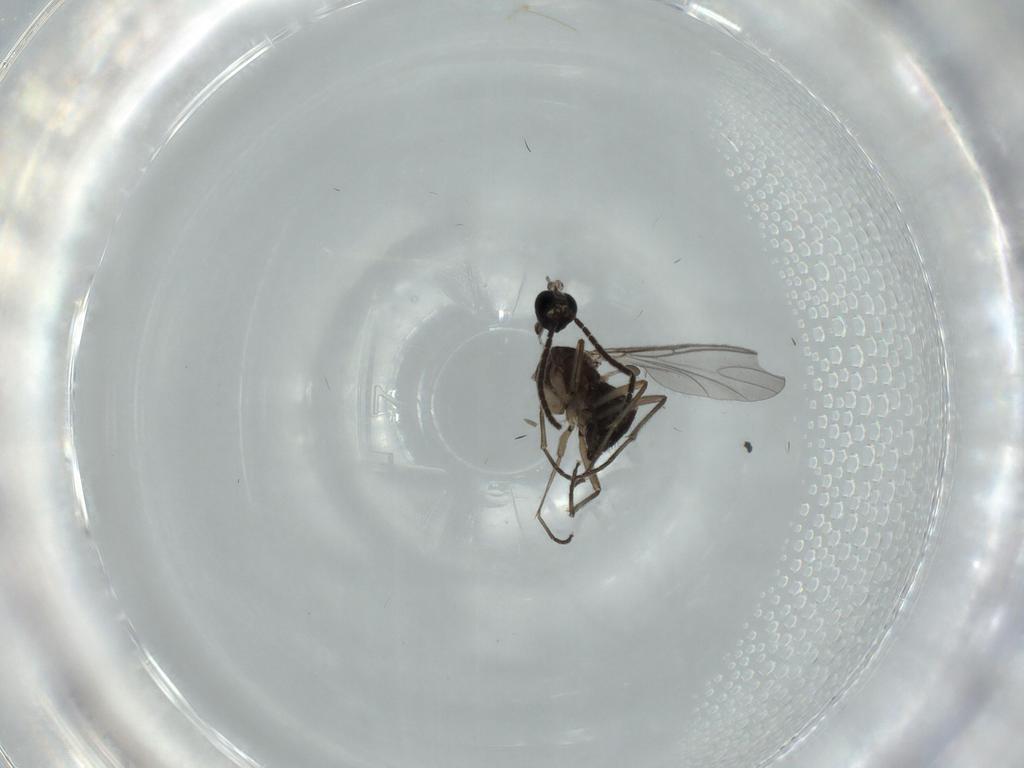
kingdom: Animalia
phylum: Arthropoda
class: Insecta
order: Diptera
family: Sciaridae
